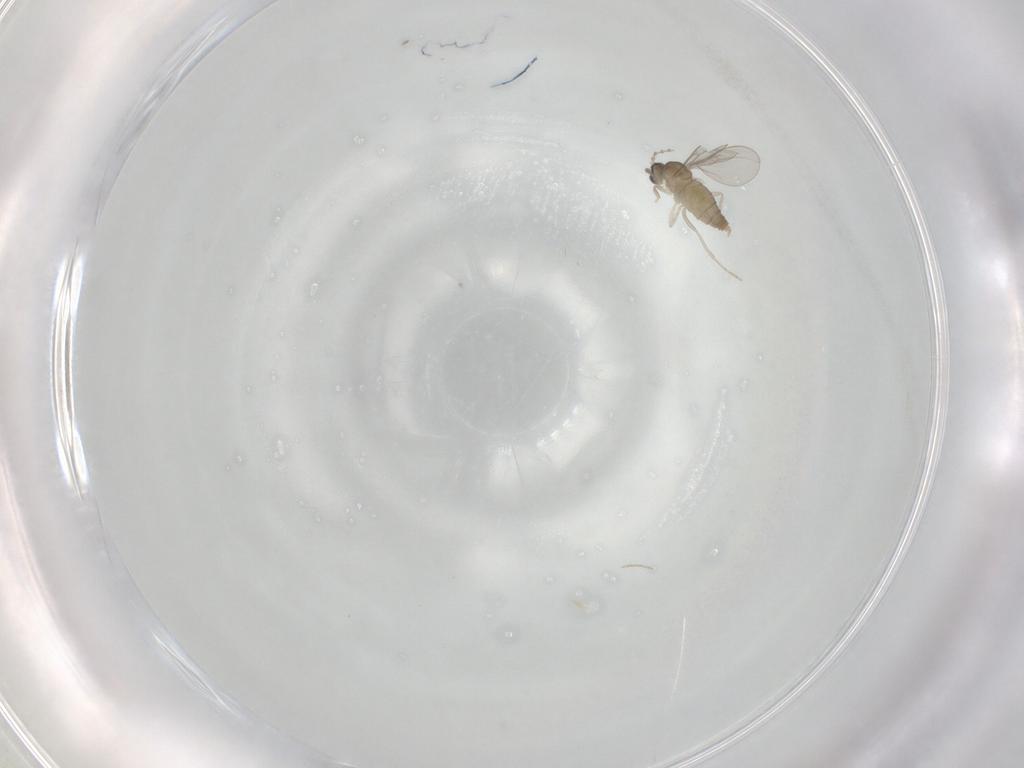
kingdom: Animalia
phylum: Arthropoda
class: Insecta
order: Diptera
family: Cecidomyiidae
